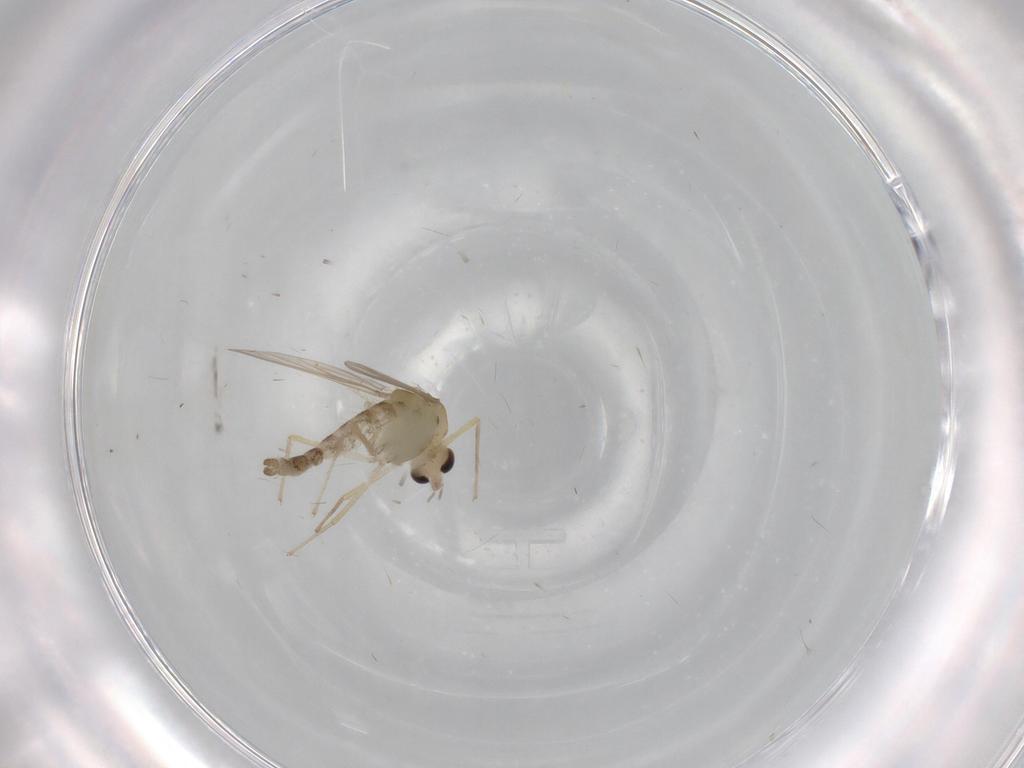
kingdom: Animalia
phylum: Arthropoda
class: Insecta
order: Diptera
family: Chironomidae
